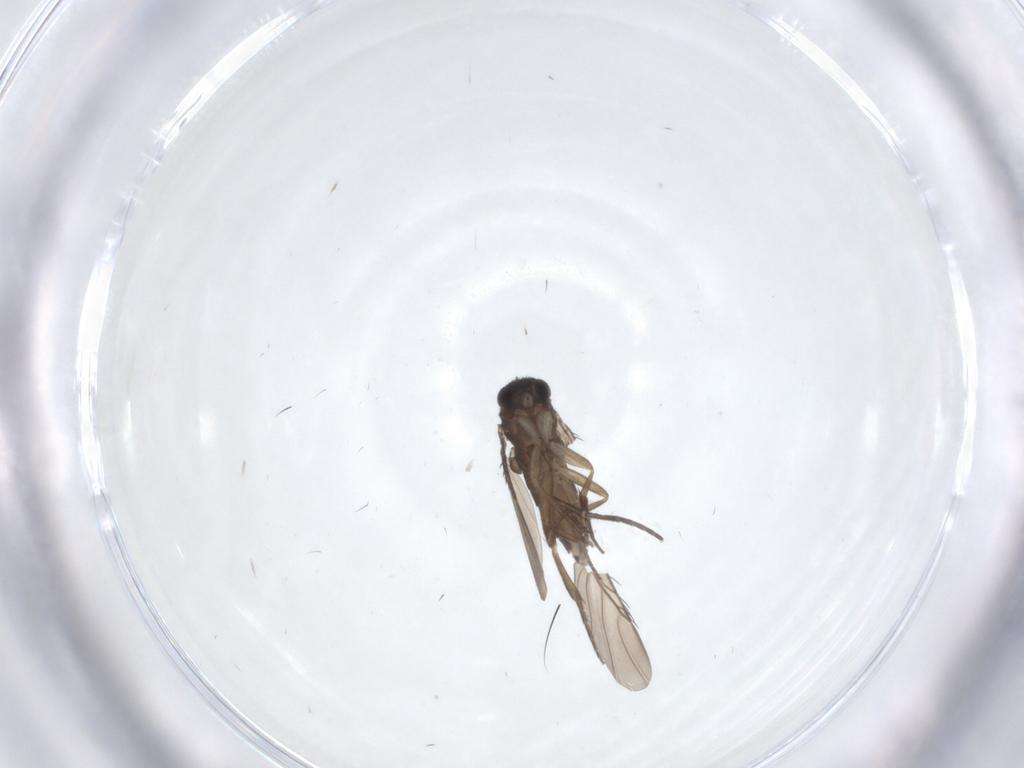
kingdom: Animalia
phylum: Arthropoda
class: Insecta
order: Diptera
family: Phoridae
